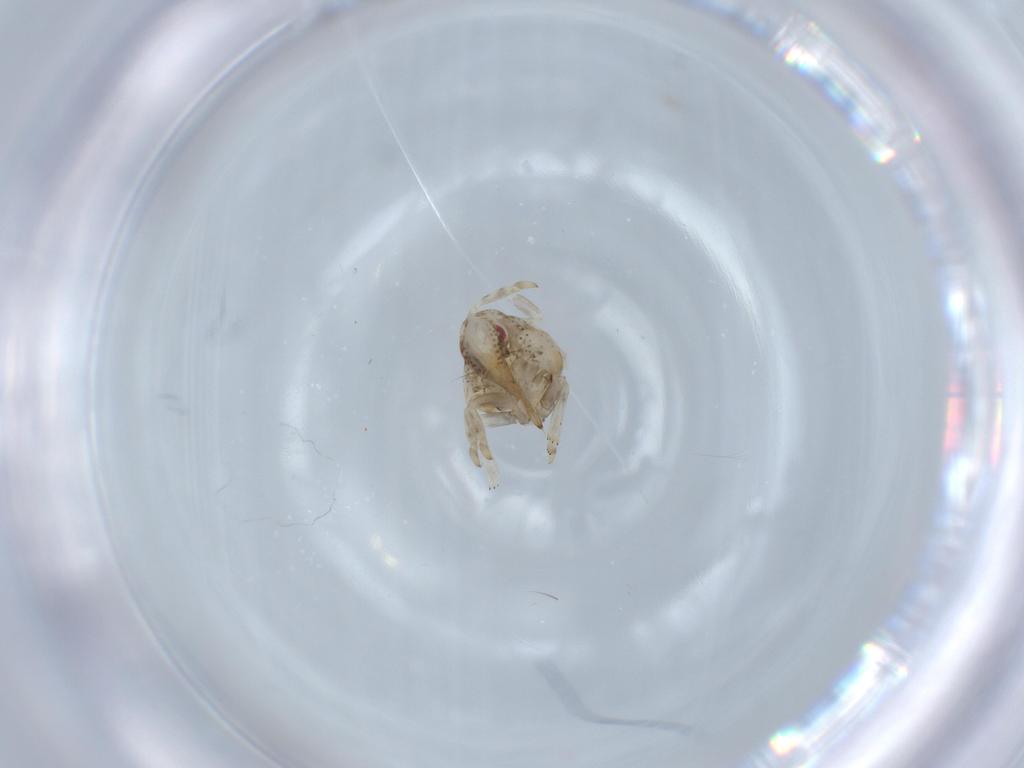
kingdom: Animalia
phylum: Arthropoda
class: Insecta
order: Hemiptera
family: Acanaloniidae
